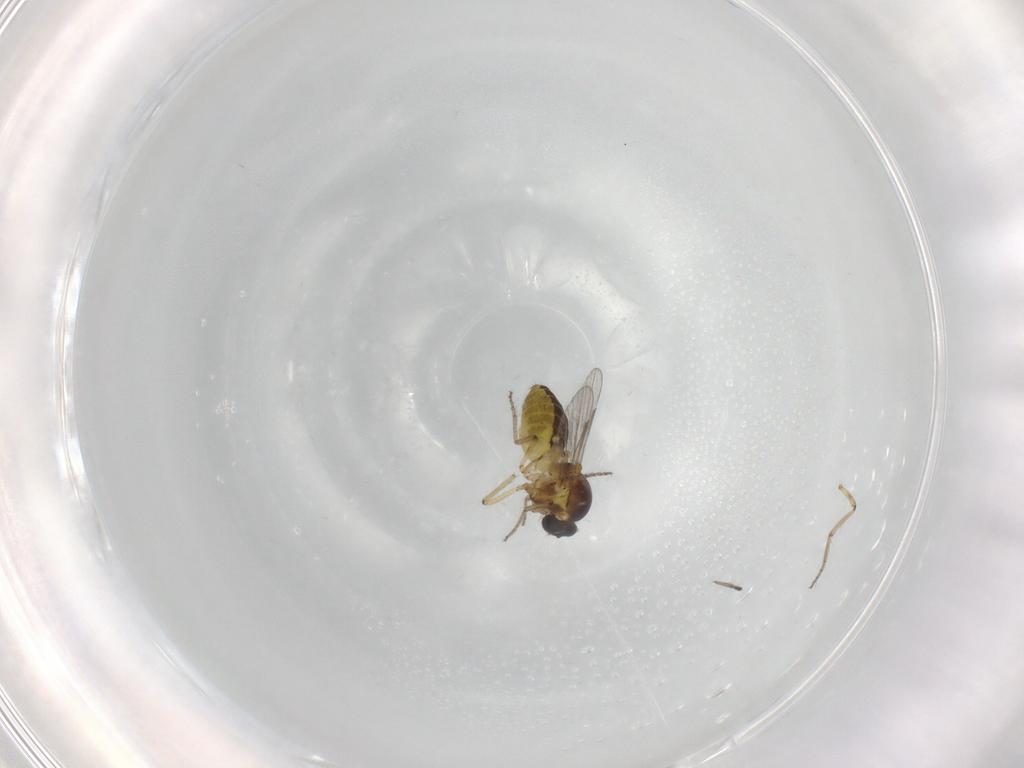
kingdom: Animalia
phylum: Arthropoda
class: Insecta
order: Diptera
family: Ceratopogonidae
